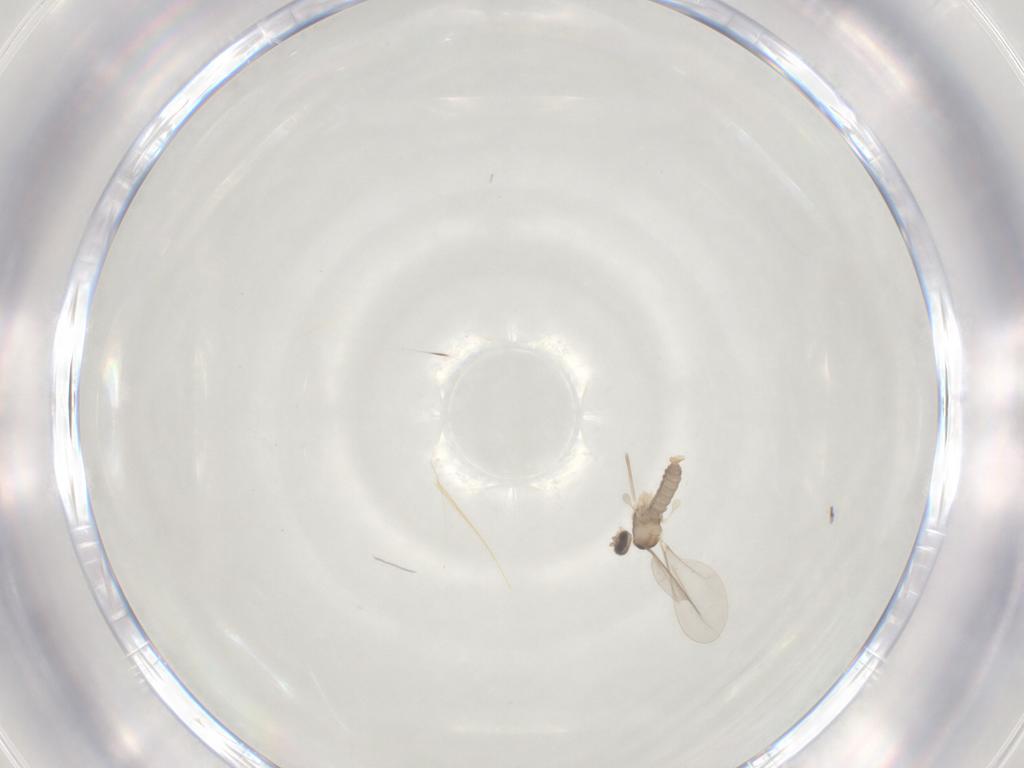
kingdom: Animalia
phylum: Arthropoda
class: Insecta
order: Diptera
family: Cecidomyiidae
